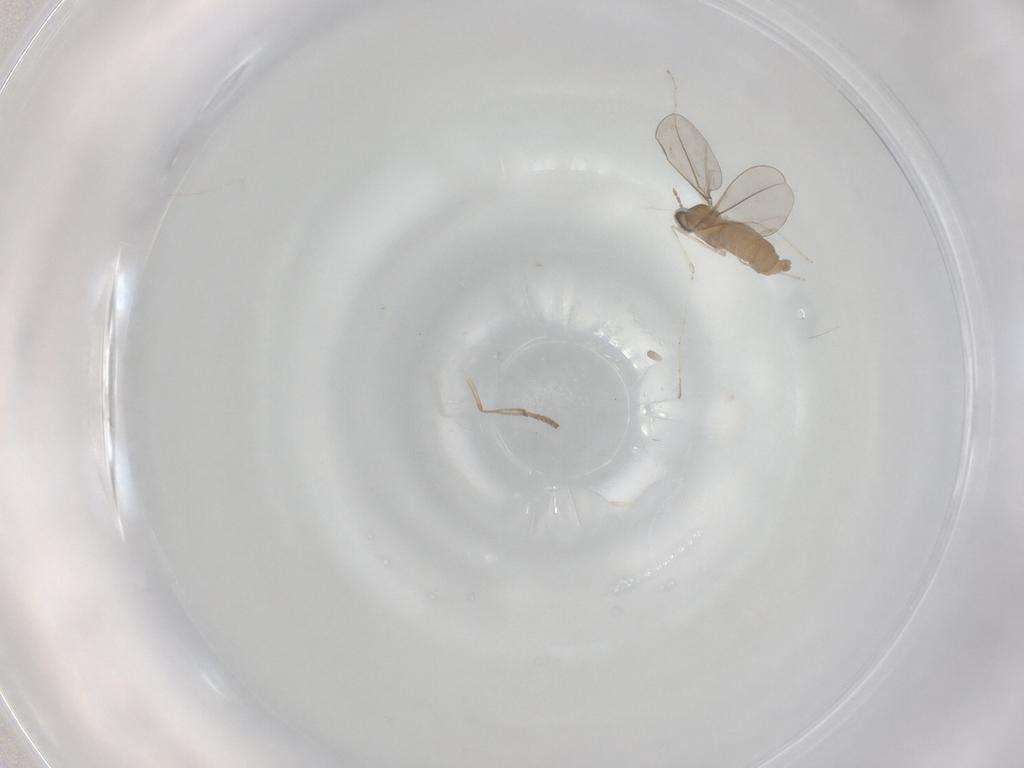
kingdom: Animalia
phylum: Arthropoda
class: Insecta
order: Diptera
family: Cecidomyiidae
